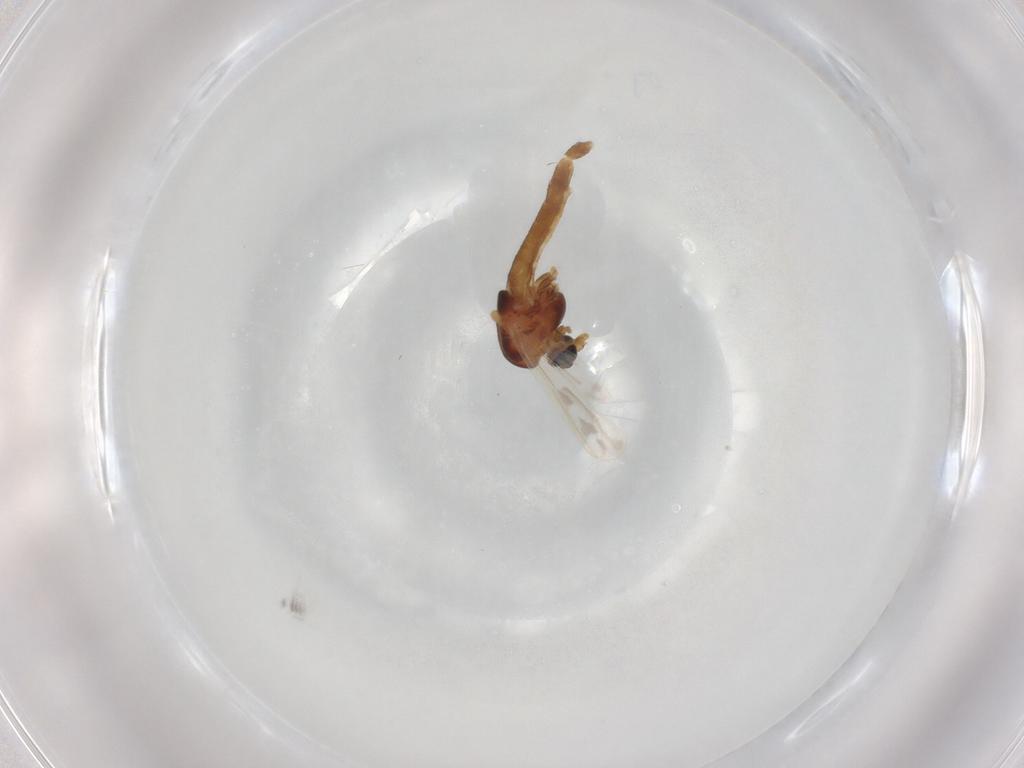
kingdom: Animalia
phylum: Arthropoda
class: Insecta
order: Diptera
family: Chironomidae
